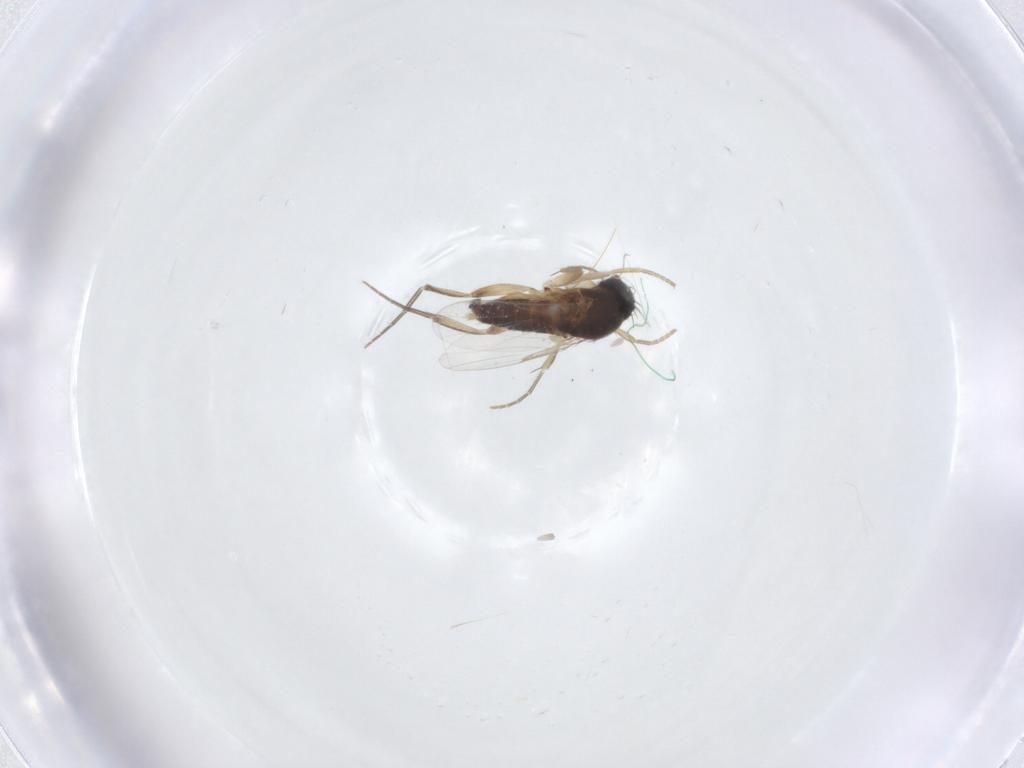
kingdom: Animalia
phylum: Arthropoda
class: Insecta
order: Diptera
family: Phoridae
